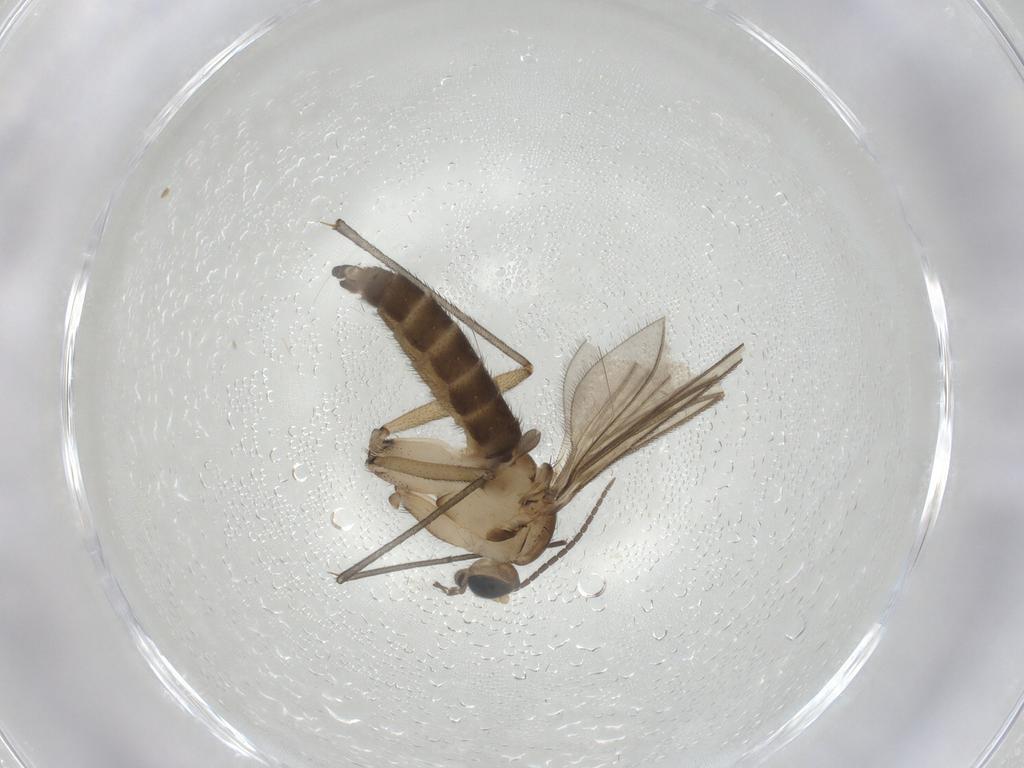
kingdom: Animalia
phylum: Arthropoda
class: Insecta
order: Diptera
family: Sciaridae
